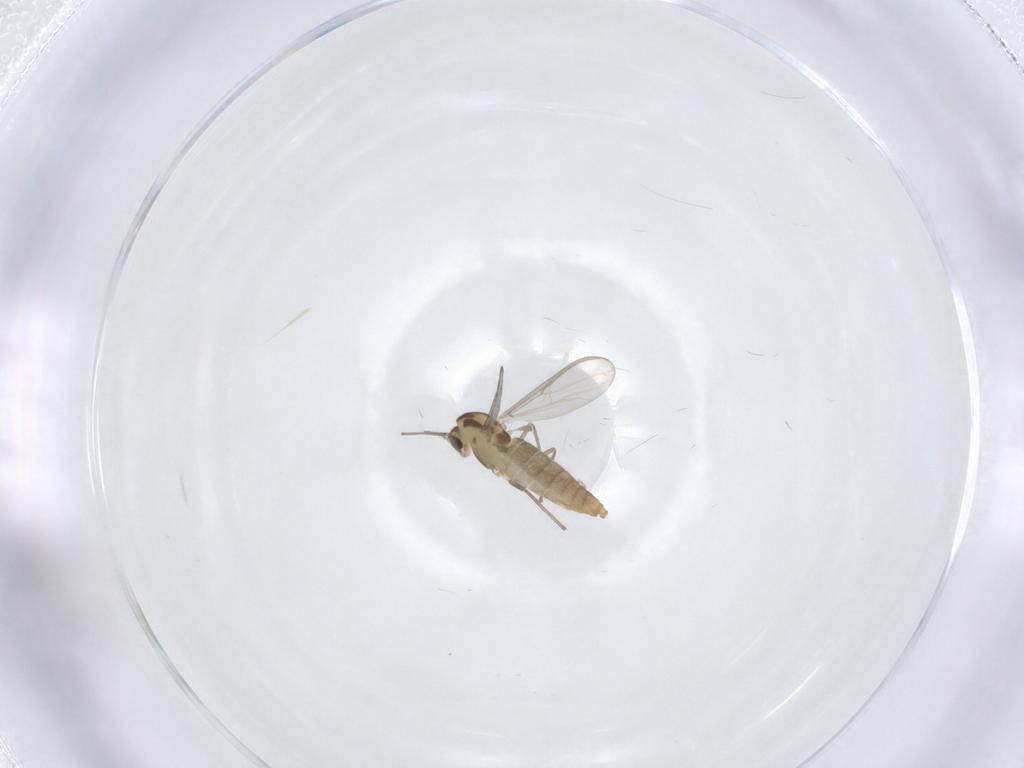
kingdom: Animalia
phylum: Arthropoda
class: Insecta
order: Diptera
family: Chironomidae
